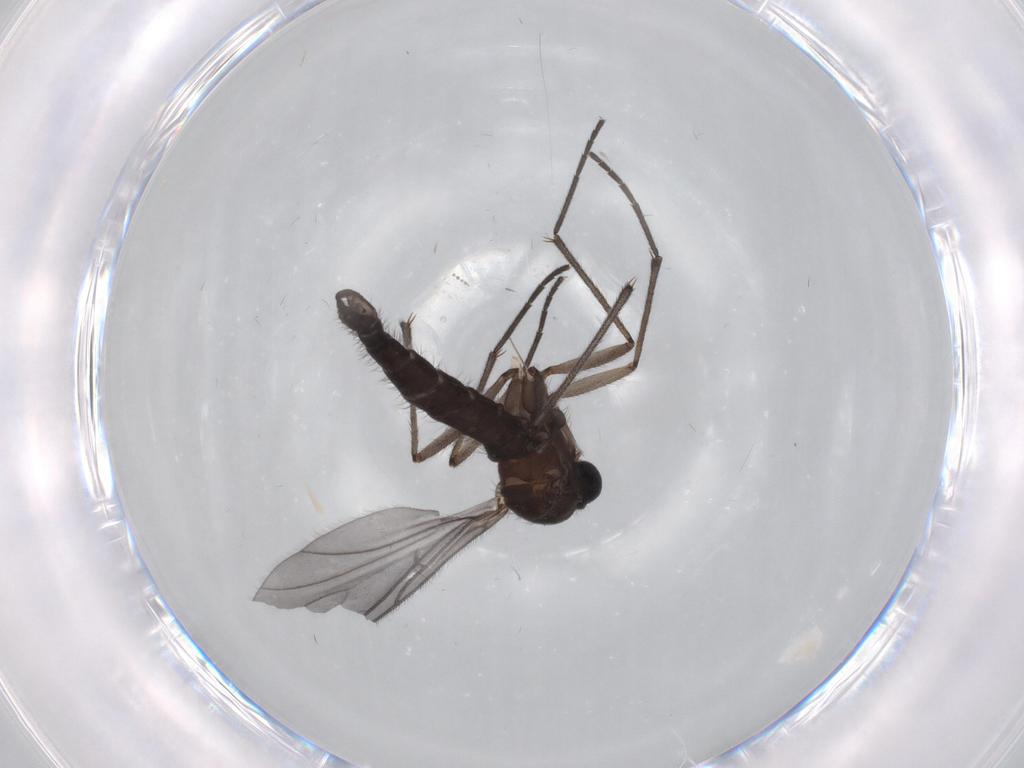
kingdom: Animalia
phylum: Arthropoda
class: Insecta
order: Diptera
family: Sciaridae
